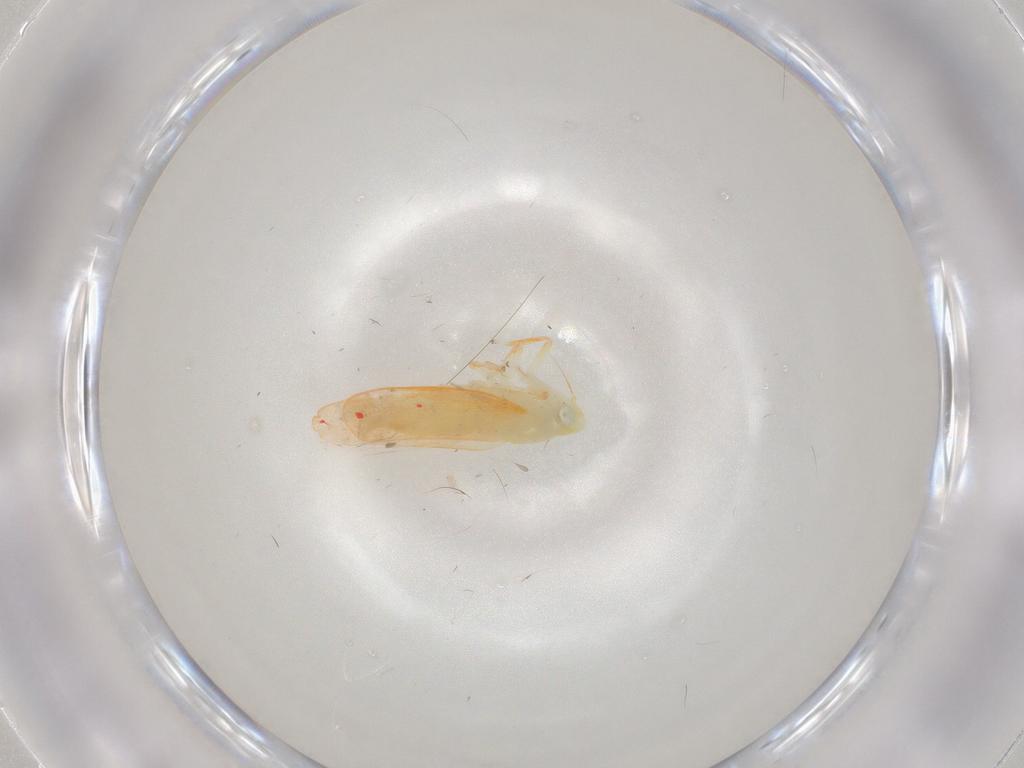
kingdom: Animalia
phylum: Arthropoda
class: Insecta
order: Hemiptera
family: Cicadellidae
